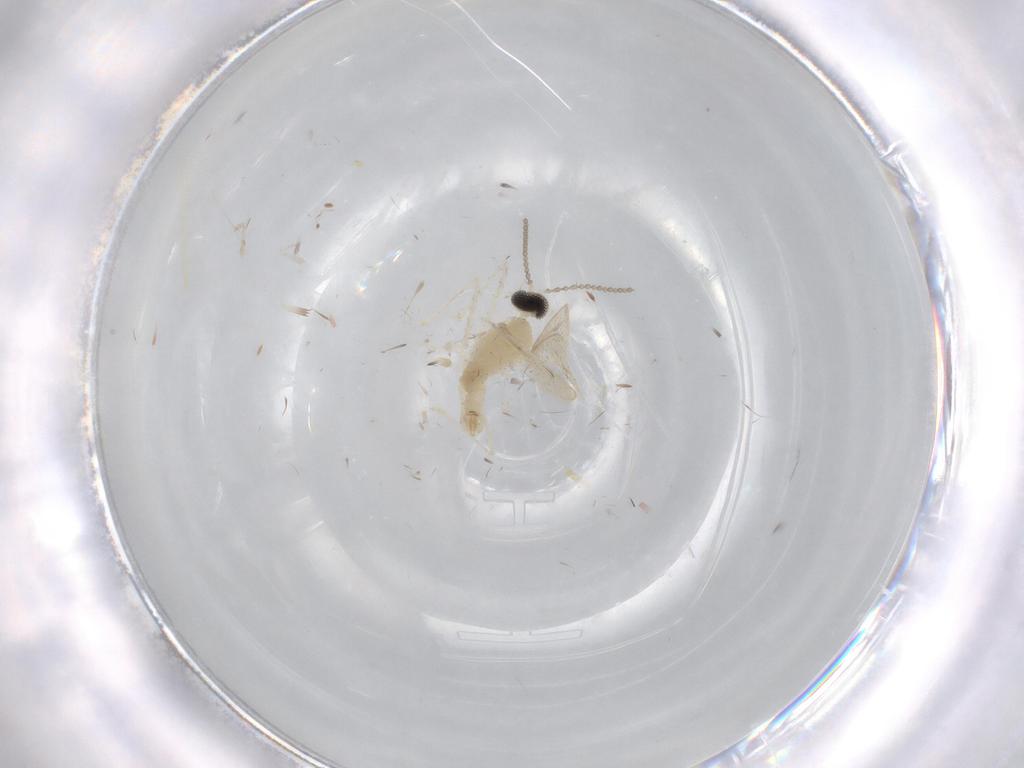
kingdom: Animalia
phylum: Arthropoda
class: Insecta
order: Diptera
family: Cecidomyiidae
